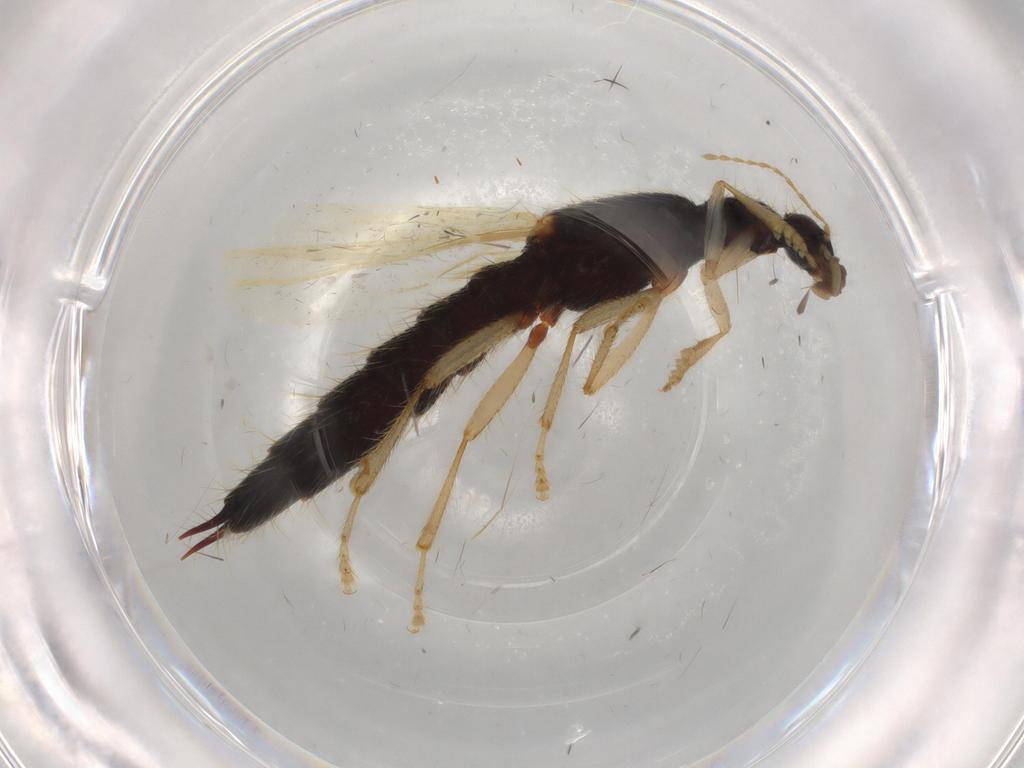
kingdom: Animalia
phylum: Arthropoda
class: Insecta
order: Coleoptera
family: Staphylinidae
